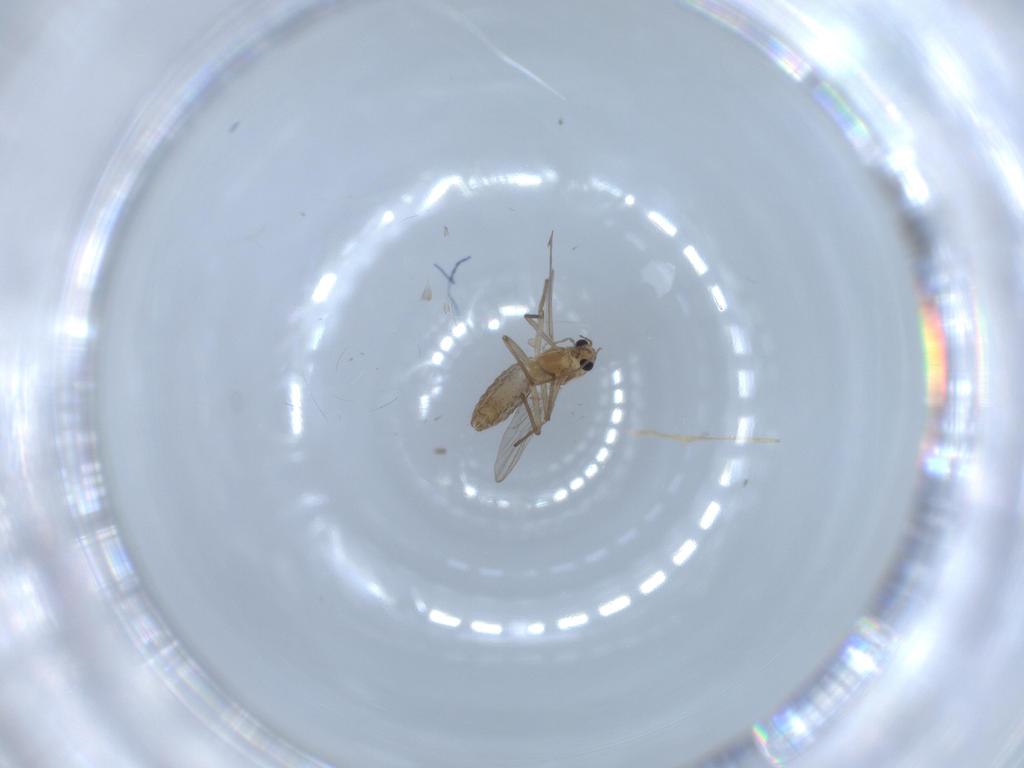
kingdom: Animalia
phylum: Arthropoda
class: Insecta
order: Diptera
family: Chironomidae
